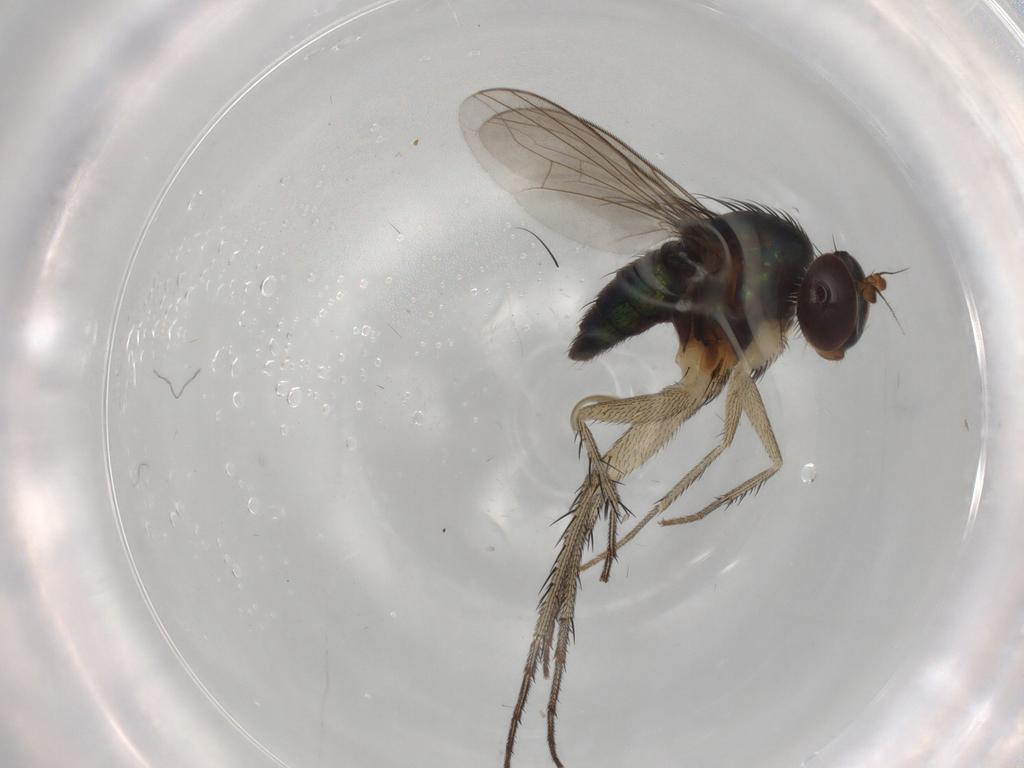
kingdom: Animalia
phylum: Arthropoda
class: Insecta
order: Diptera
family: Dolichopodidae
